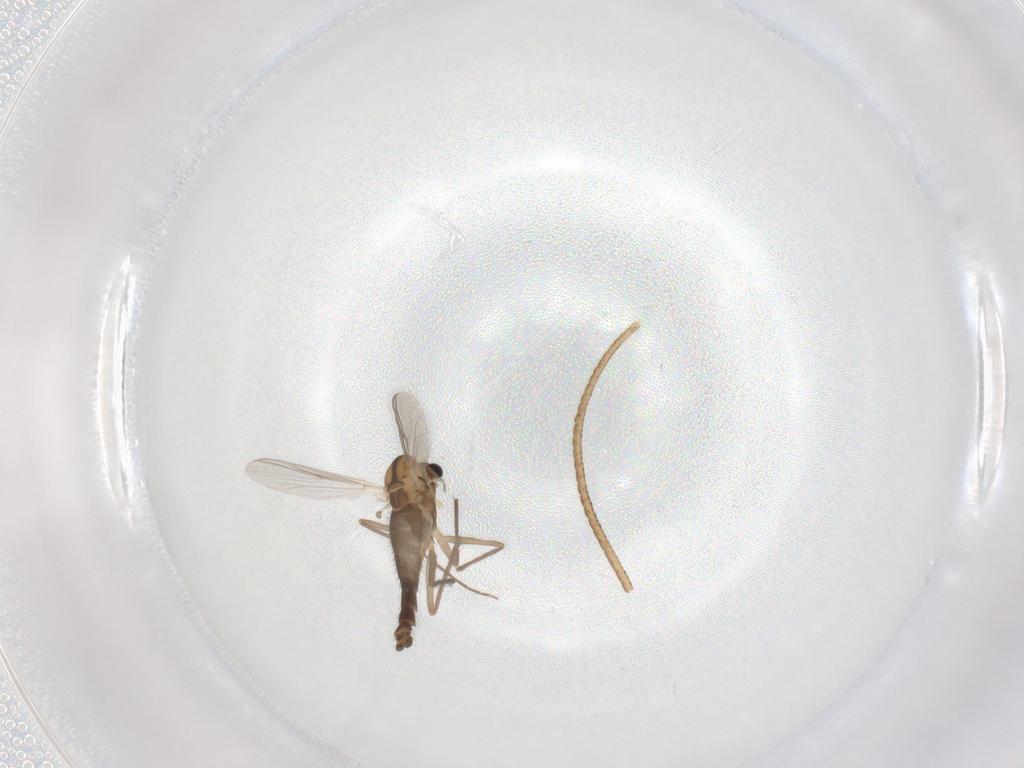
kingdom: Animalia
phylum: Arthropoda
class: Insecta
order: Diptera
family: Chironomidae
